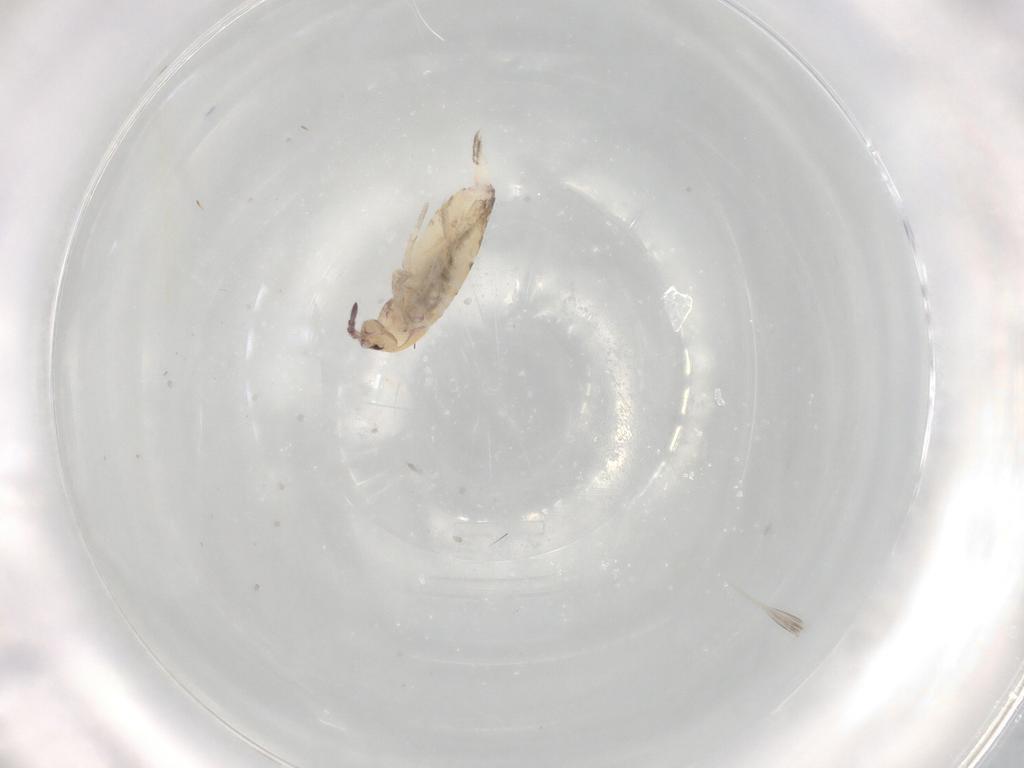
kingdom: Animalia
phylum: Arthropoda
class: Collembola
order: Entomobryomorpha
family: Entomobryidae
